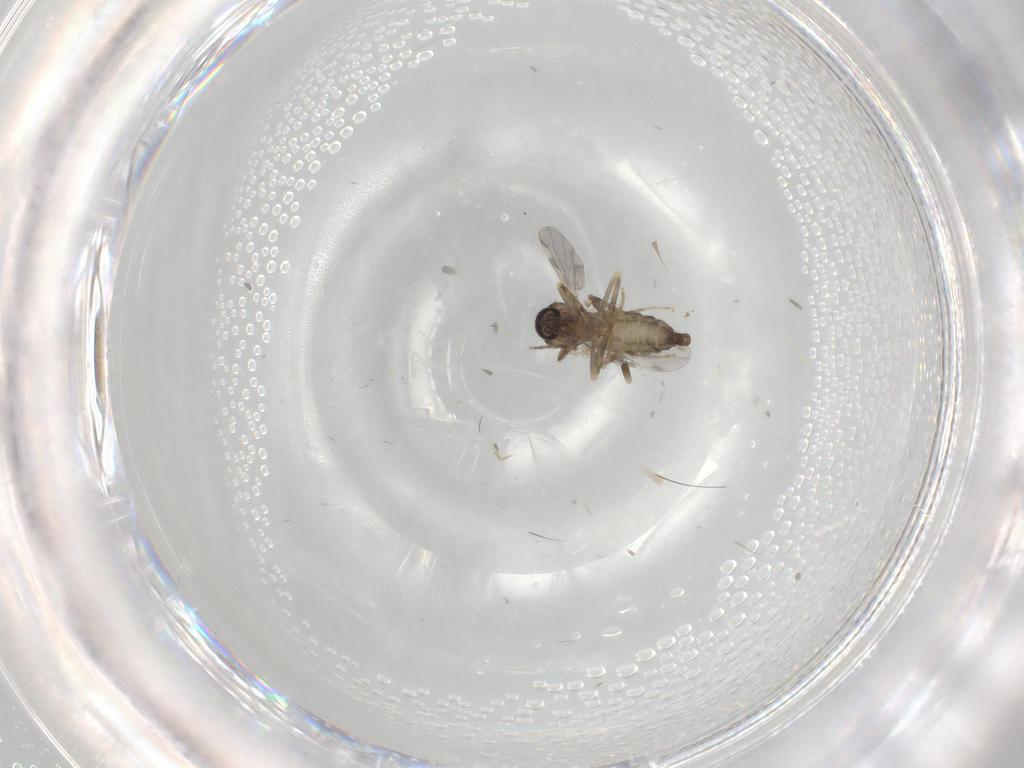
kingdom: Animalia
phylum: Arthropoda
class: Insecta
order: Diptera
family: Ceratopogonidae
